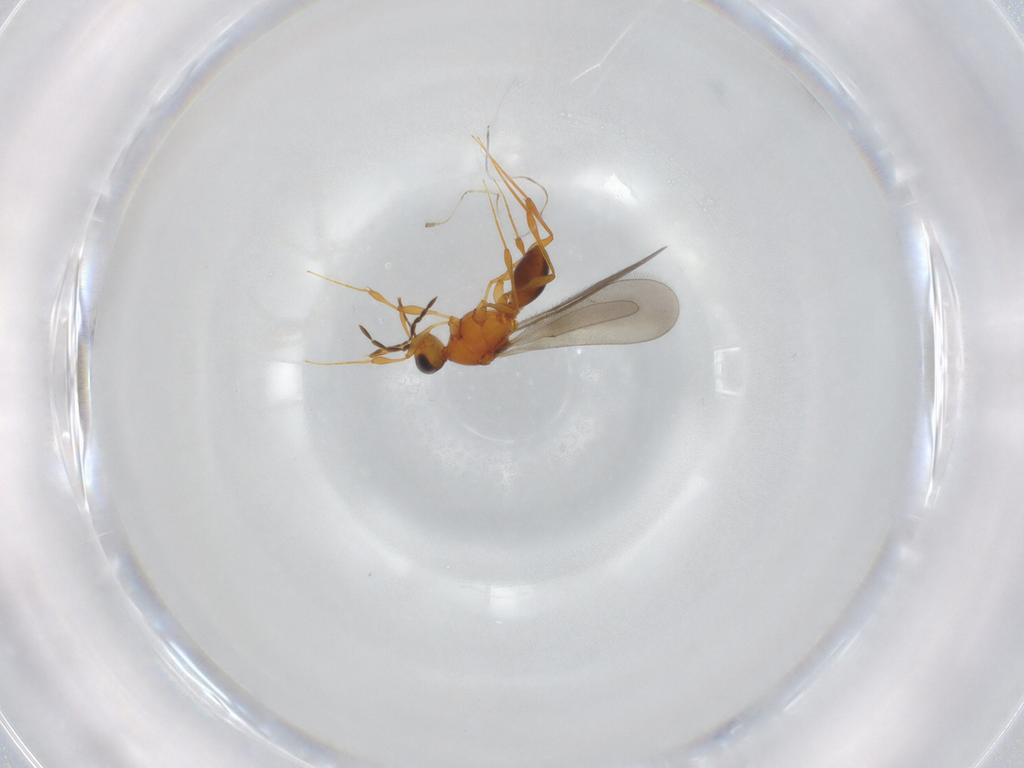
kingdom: Animalia
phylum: Arthropoda
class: Insecta
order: Hymenoptera
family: Platygastridae
